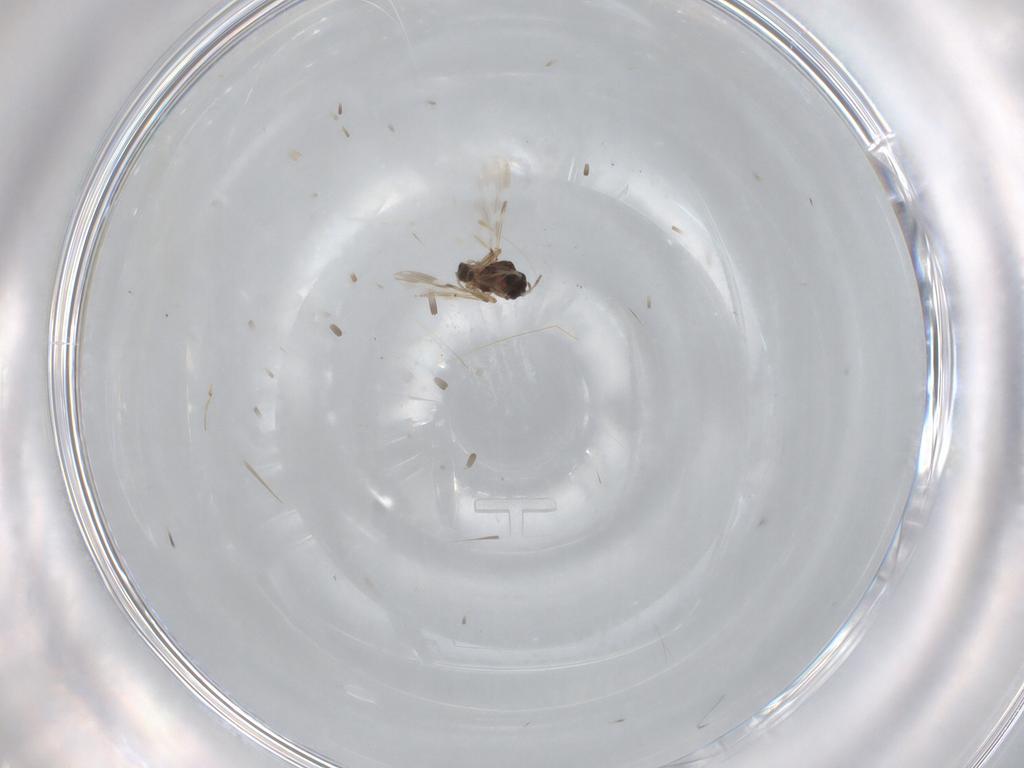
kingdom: Animalia
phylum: Arthropoda
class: Insecta
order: Diptera
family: Ceratopogonidae
